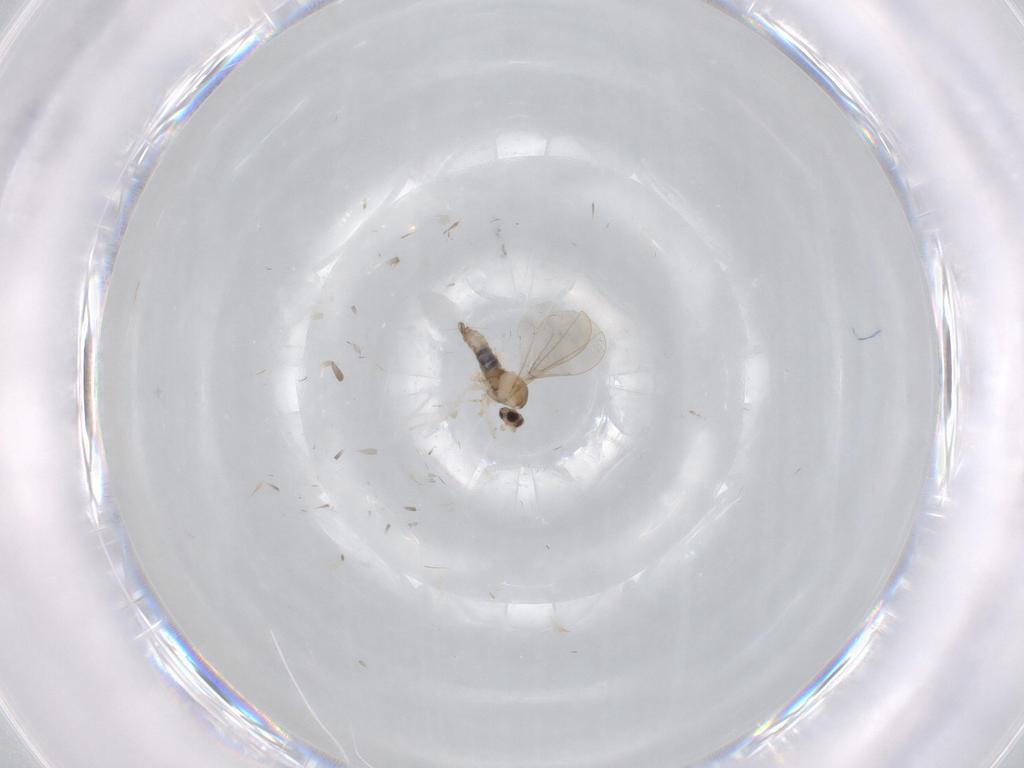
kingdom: Animalia
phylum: Arthropoda
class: Insecta
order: Diptera
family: Cecidomyiidae
